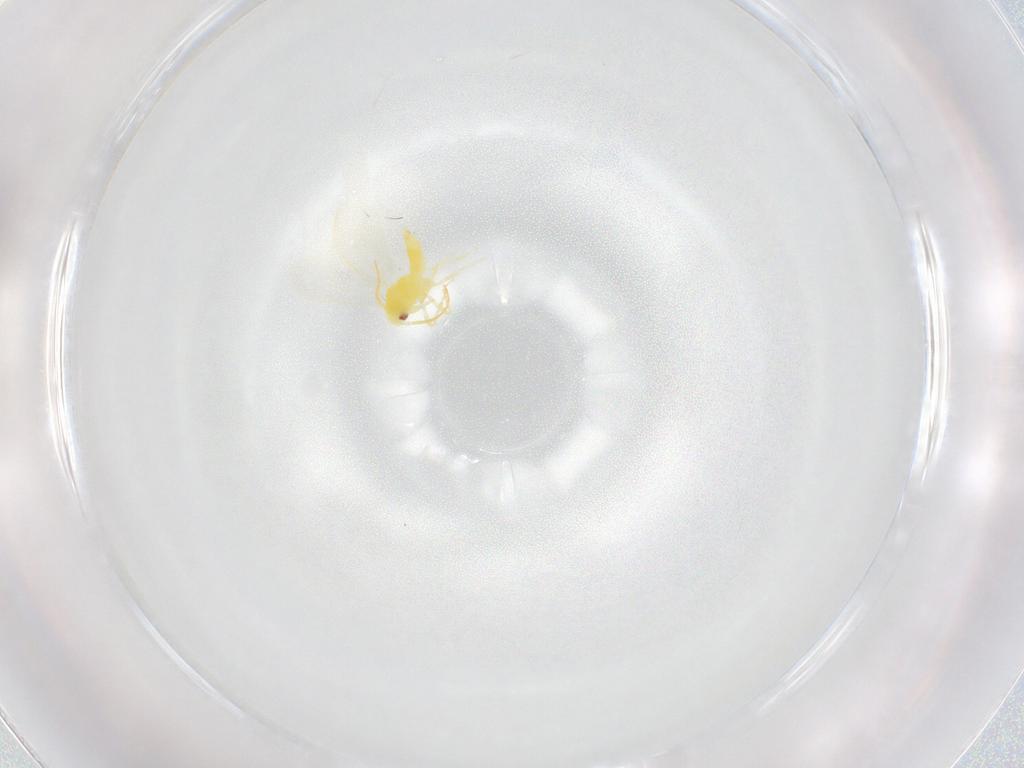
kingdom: Animalia
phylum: Arthropoda
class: Insecta
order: Hemiptera
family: Aleyrodidae
